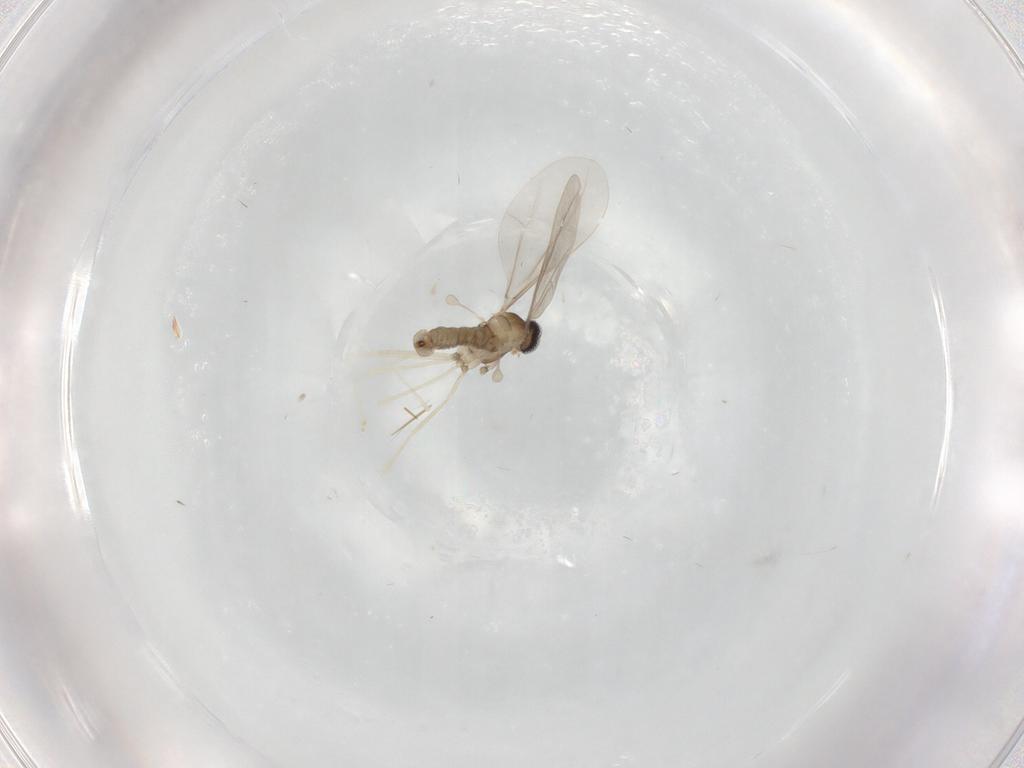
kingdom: Animalia
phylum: Arthropoda
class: Insecta
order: Diptera
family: Cecidomyiidae
